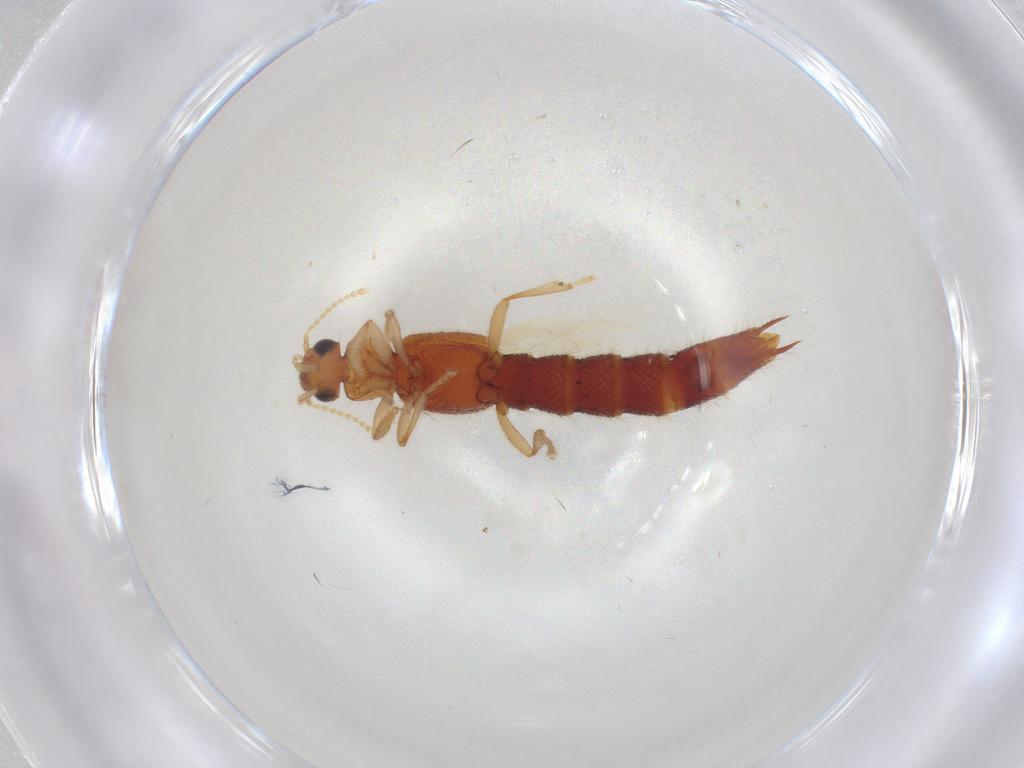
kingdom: Animalia
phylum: Arthropoda
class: Insecta
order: Coleoptera
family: Staphylinidae
